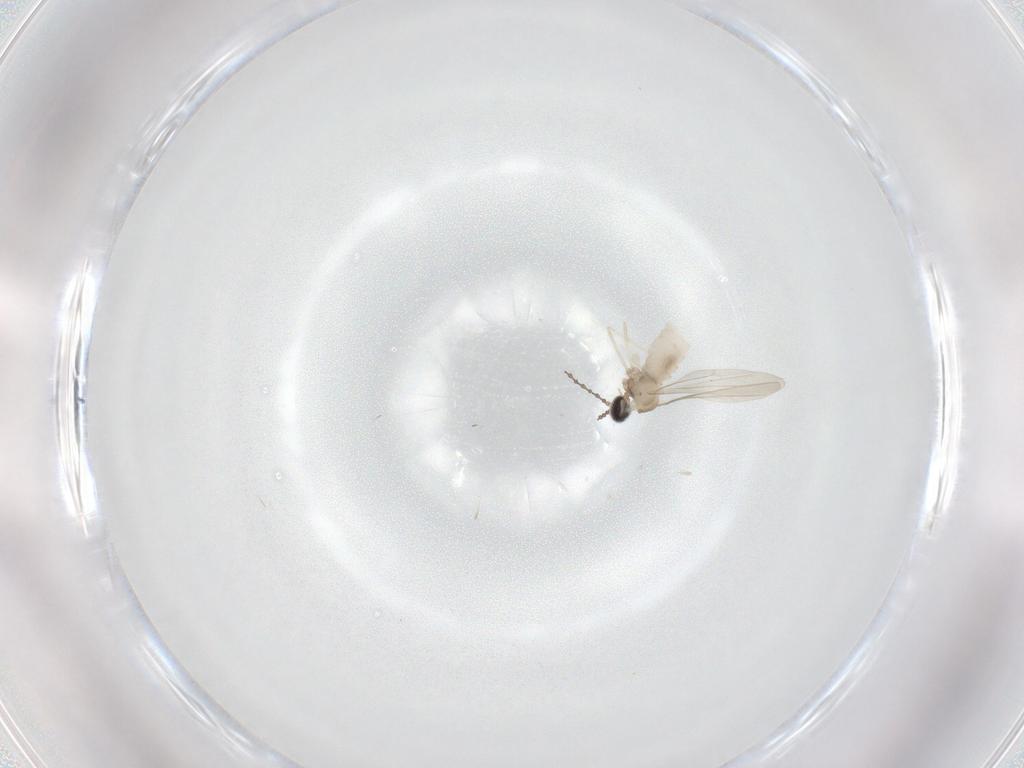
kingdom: Animalia
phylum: Arthropoda
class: Insecta
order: Diptera
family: Cecidomyiidae
